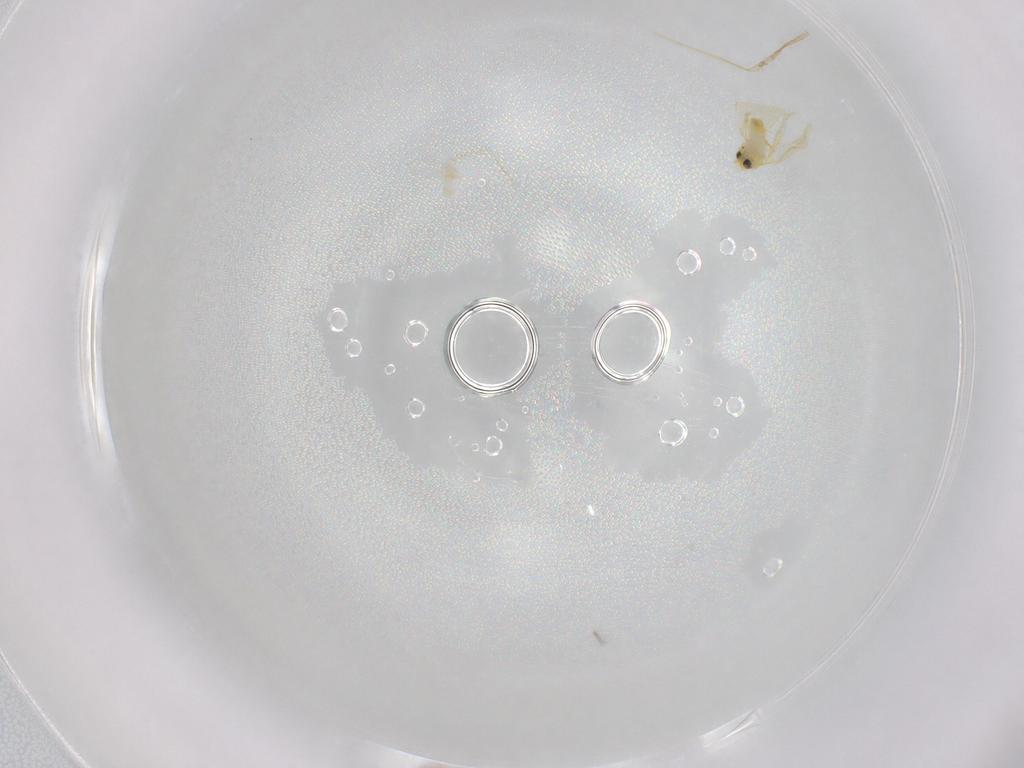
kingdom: Animalia
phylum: Arthropoda
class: Insecta
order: Hemiptera
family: Aleyrodidae
